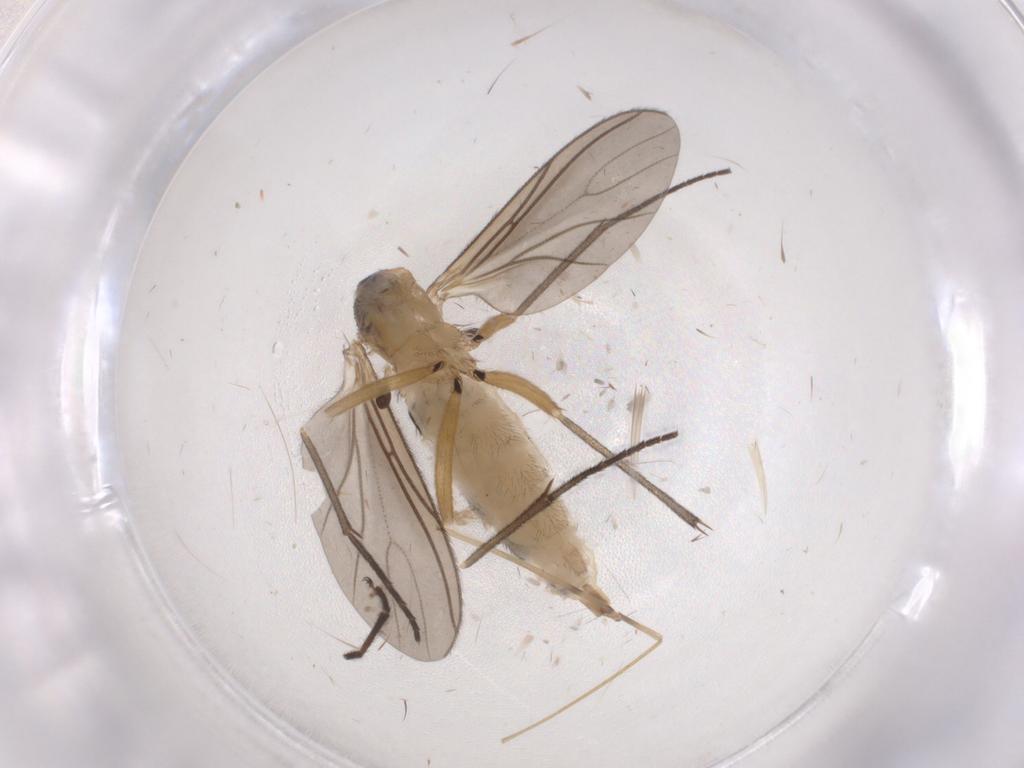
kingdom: Animalia
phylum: Arthropoda
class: Insecta
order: Diptera
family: Sciaridae
